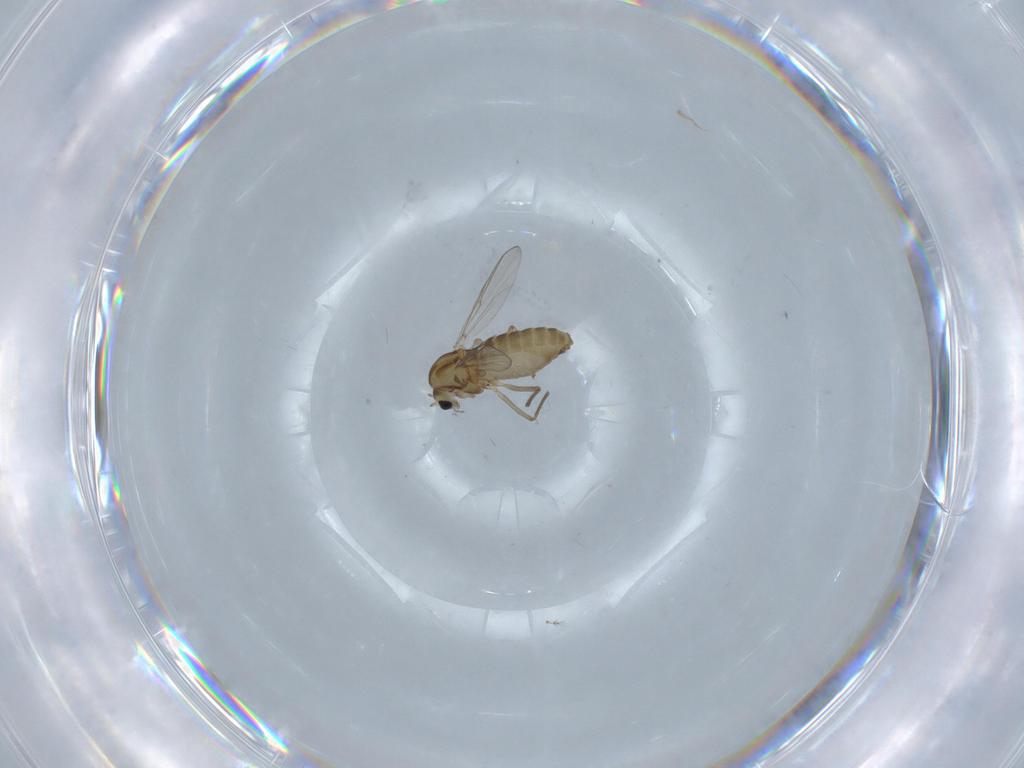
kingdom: Animalia
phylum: Arthropoda
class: Insecta
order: Diptera
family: Chironomidae
